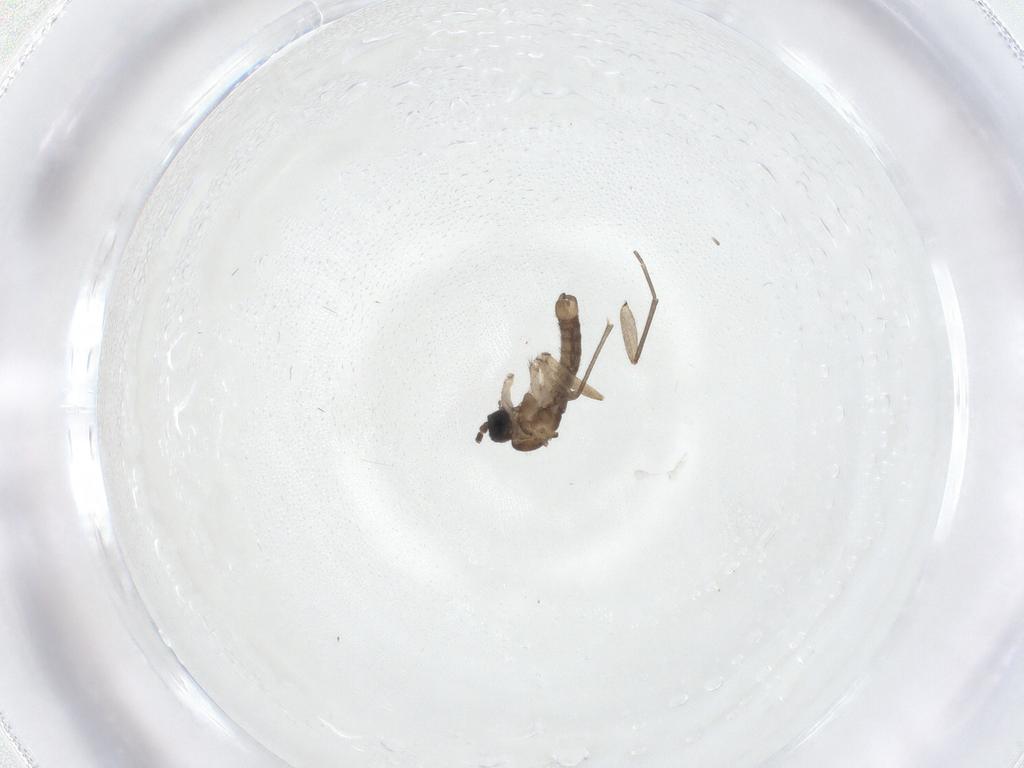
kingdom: Animalia
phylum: Arthropoda
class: Insecta
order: Diptera
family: Sciaridae
